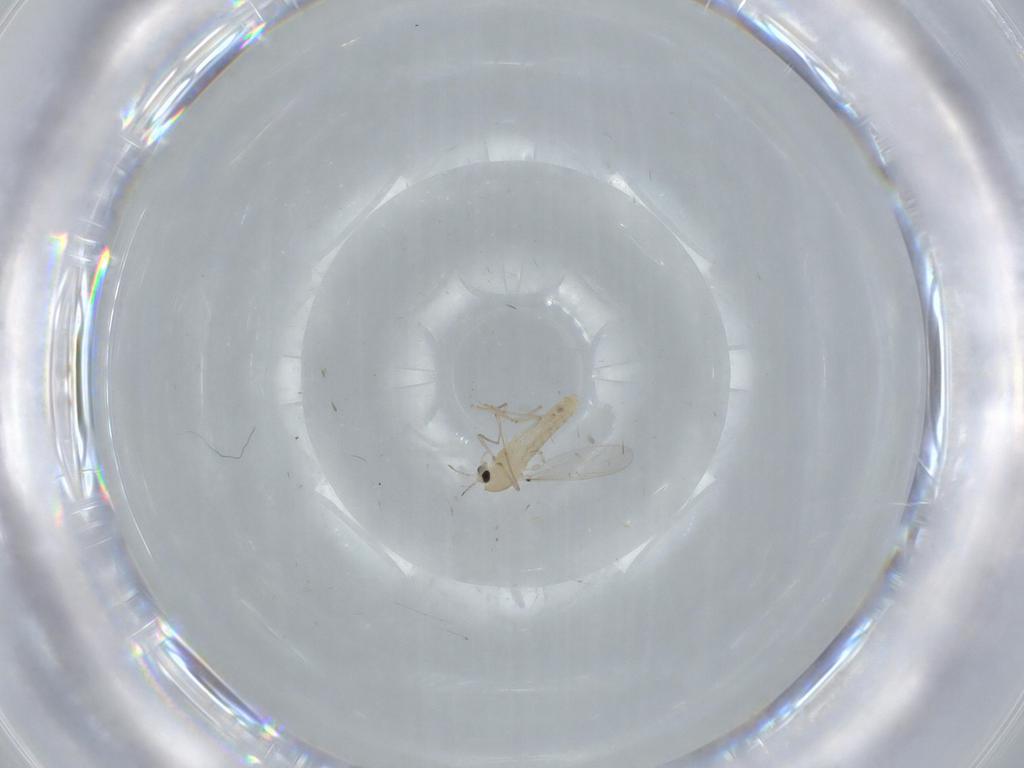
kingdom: Animalia
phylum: Arthropoda
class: Insecta
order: Diptera
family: Chironomidae
